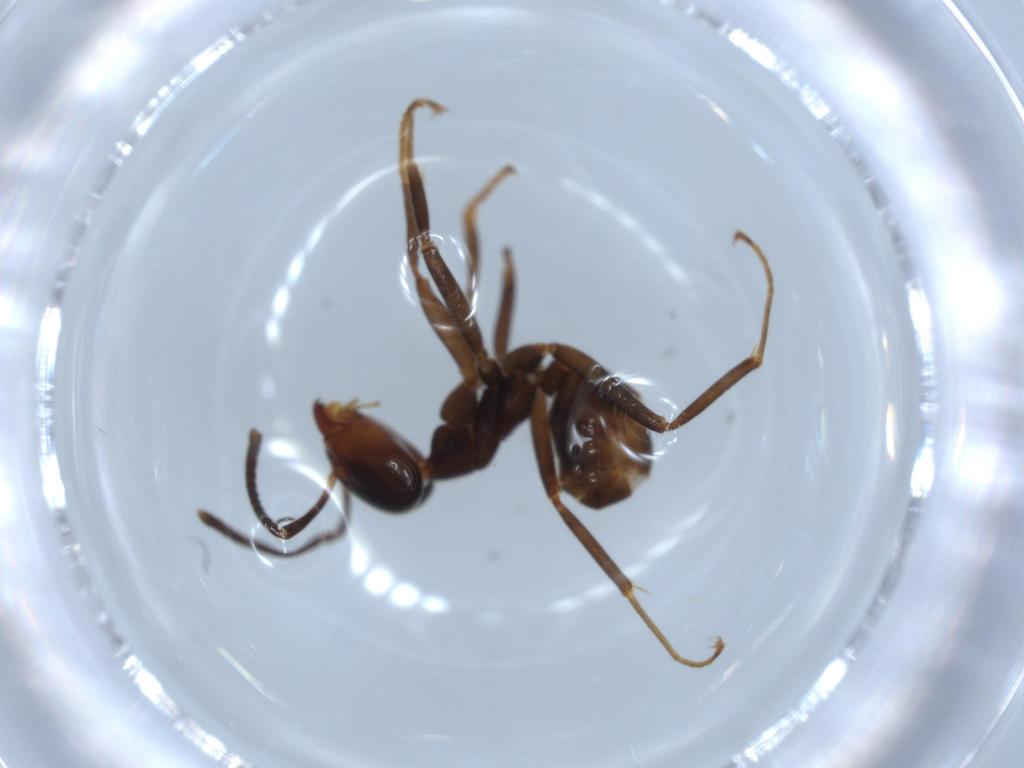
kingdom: Animalia
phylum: Arthropoda
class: Insecta
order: Hymenoptera
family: Formicidae
